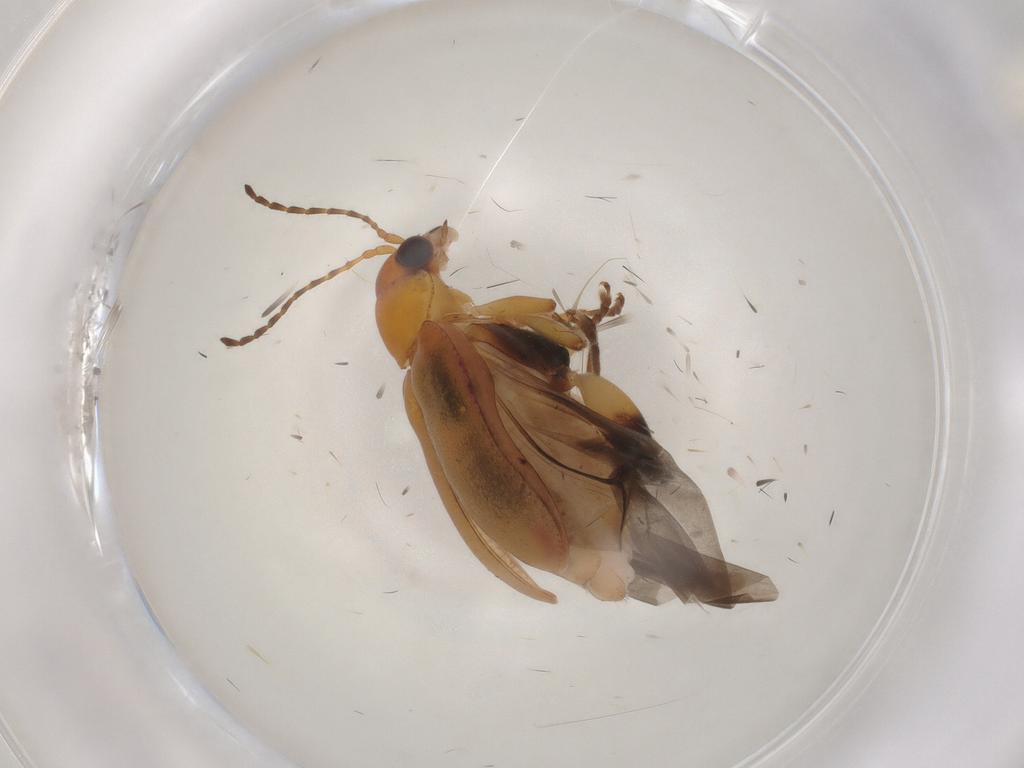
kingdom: Animalia
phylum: Arthropoda
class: Insecta
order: Coleoptera
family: Chrysomelidae
